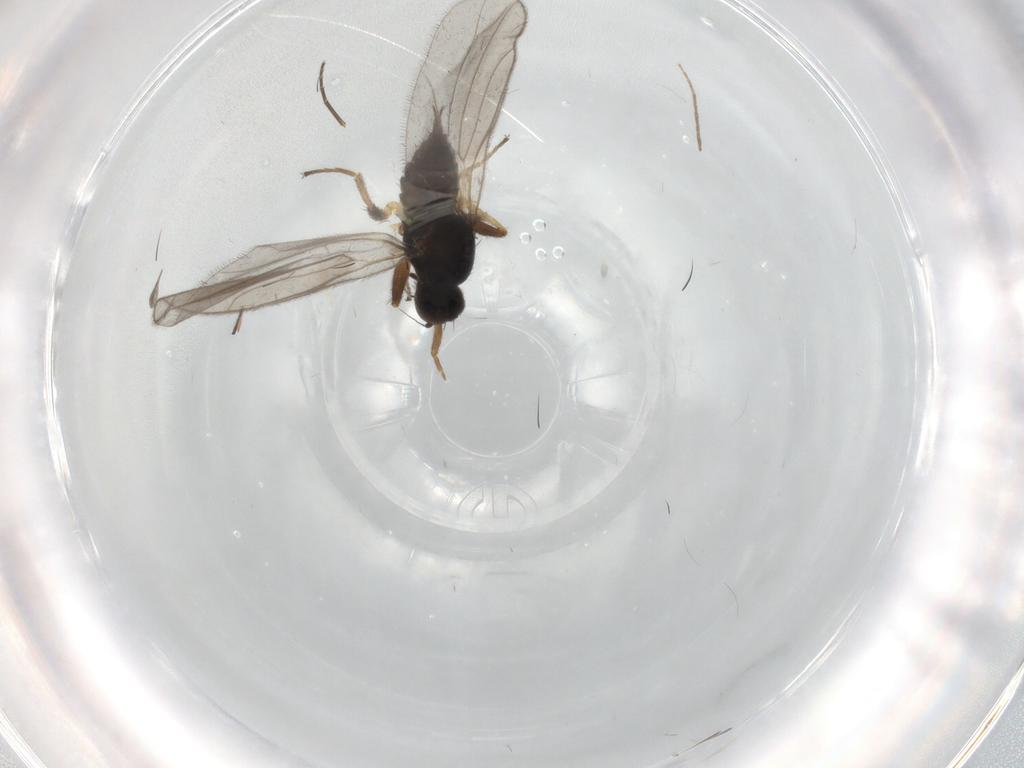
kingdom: Animalia
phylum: Arthropoda
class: Insecta
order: Diptera
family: Hybotidae
